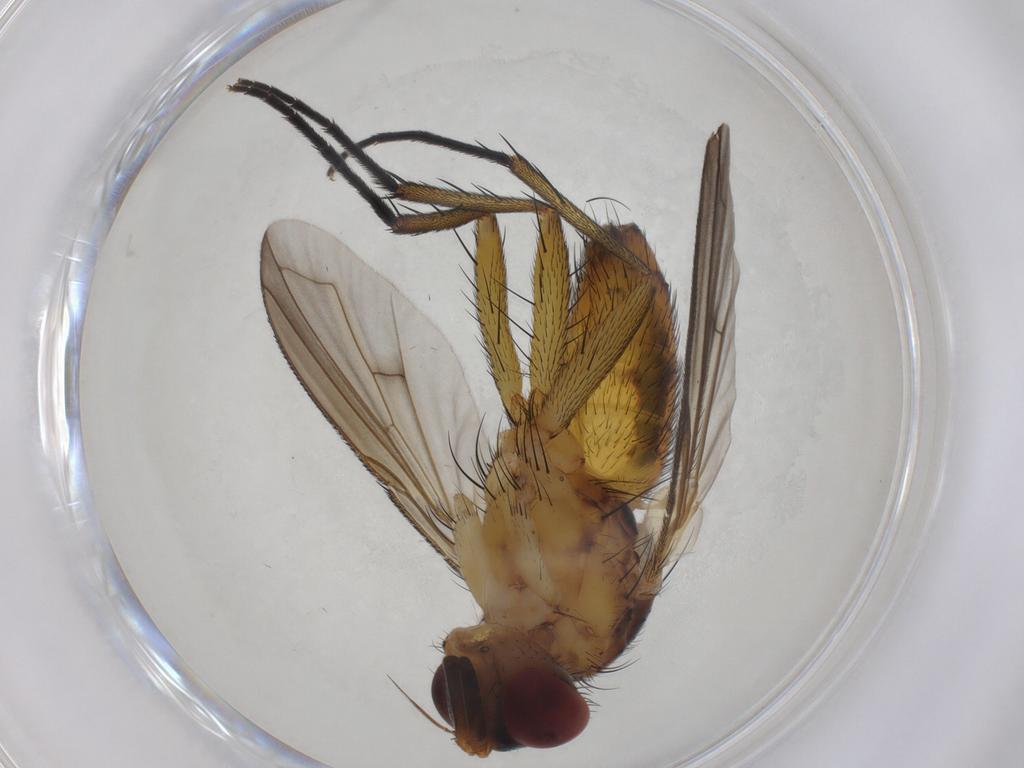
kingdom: Animalia
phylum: Arthropoda
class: Insecta
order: Diptera
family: Tachinidae
